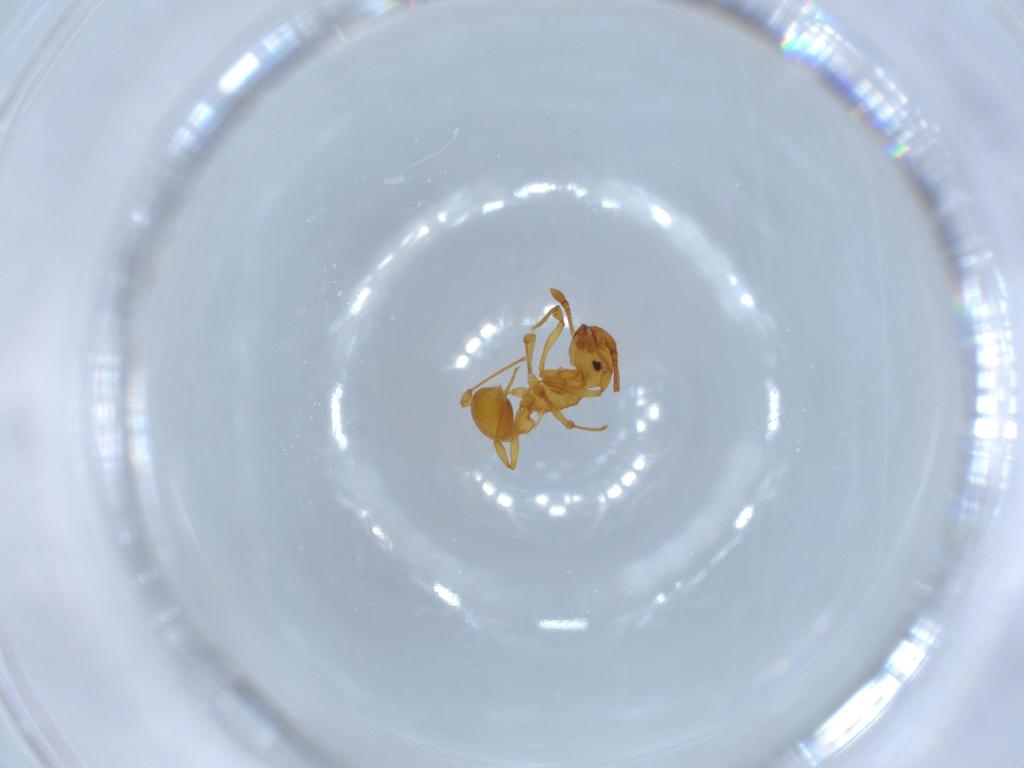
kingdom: Animalia
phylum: Arthropoda
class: Insecta
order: Hymenoptera
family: Formicidae
